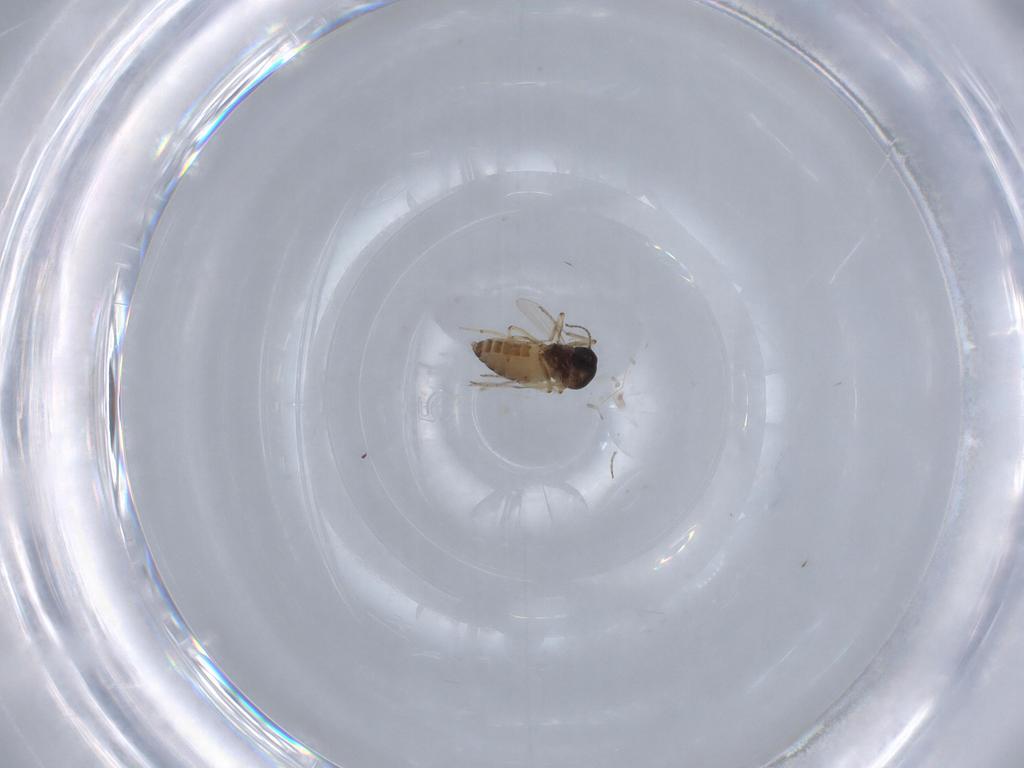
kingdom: Animalia
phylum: Arthropoda
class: Insecta
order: Diptera
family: Ceratopogonidae
